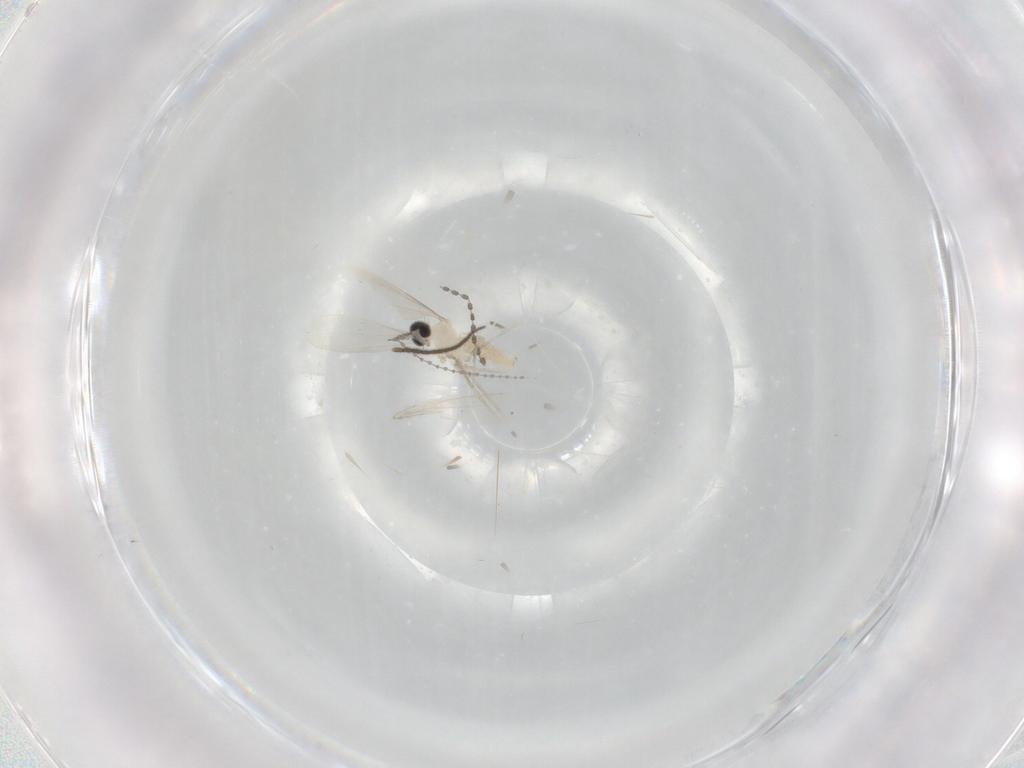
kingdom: Animalia
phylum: Arthropoda
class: Insecta
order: Diptera
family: Cecidomyiidae
